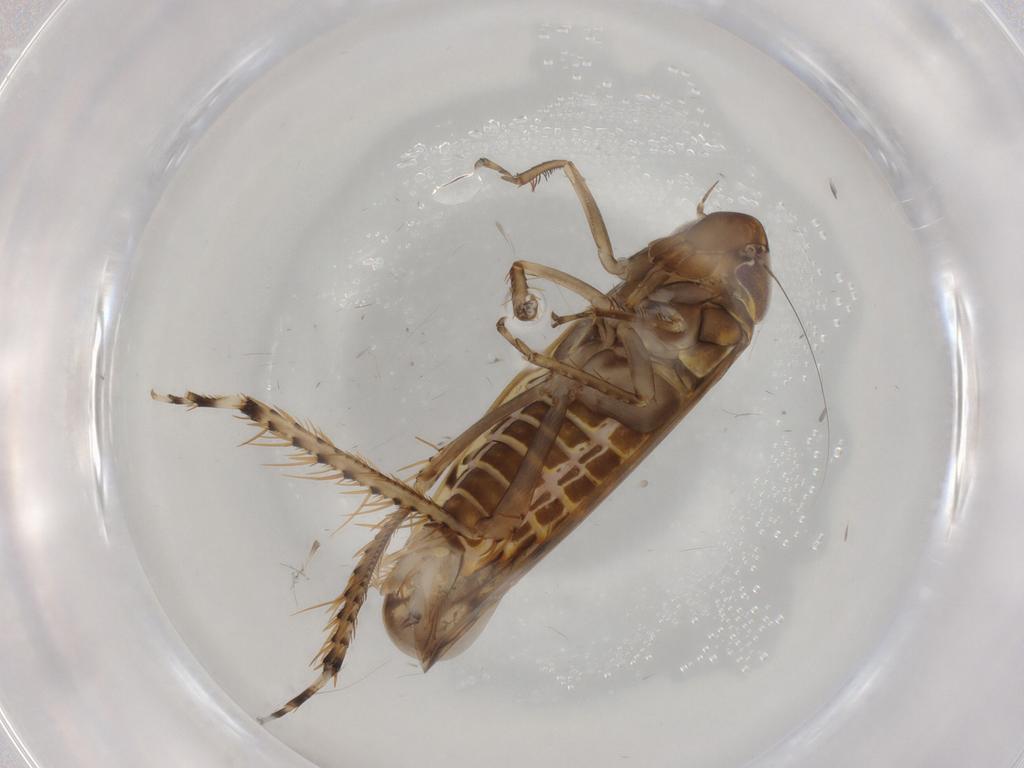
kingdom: Animalia
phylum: Arthropoda
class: Insecta
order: Hemiptera
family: Cicadellidae
